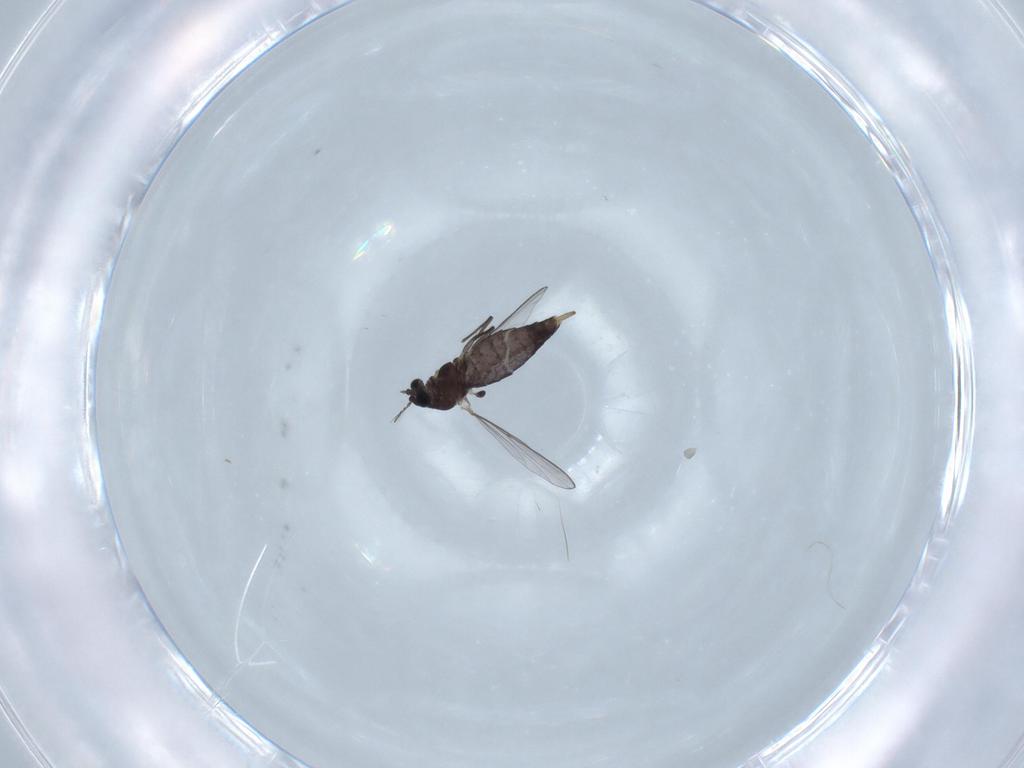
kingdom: Animalia
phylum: Arthropoda
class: Insecta
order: Diptera
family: Chironomidae
